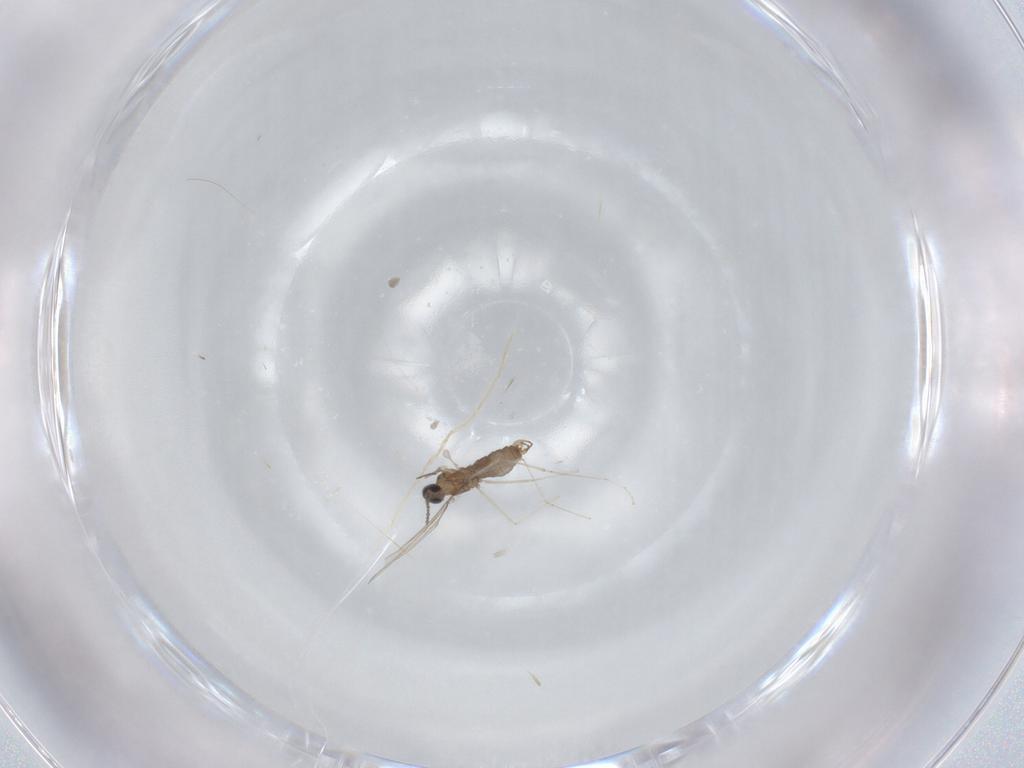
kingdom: Animalia
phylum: Arthropoda
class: Insecta
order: Diptera
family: Cecidomyiidae
